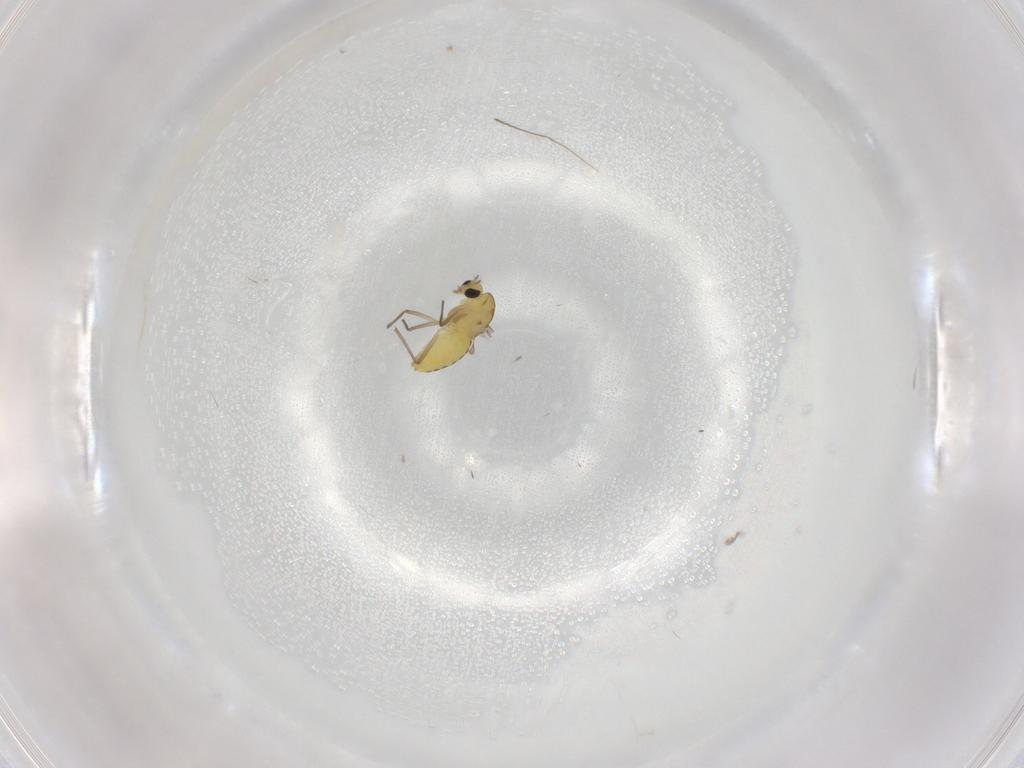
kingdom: Animalia
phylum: Arthropoda
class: Insecta
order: Diptera
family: Chironomidae
